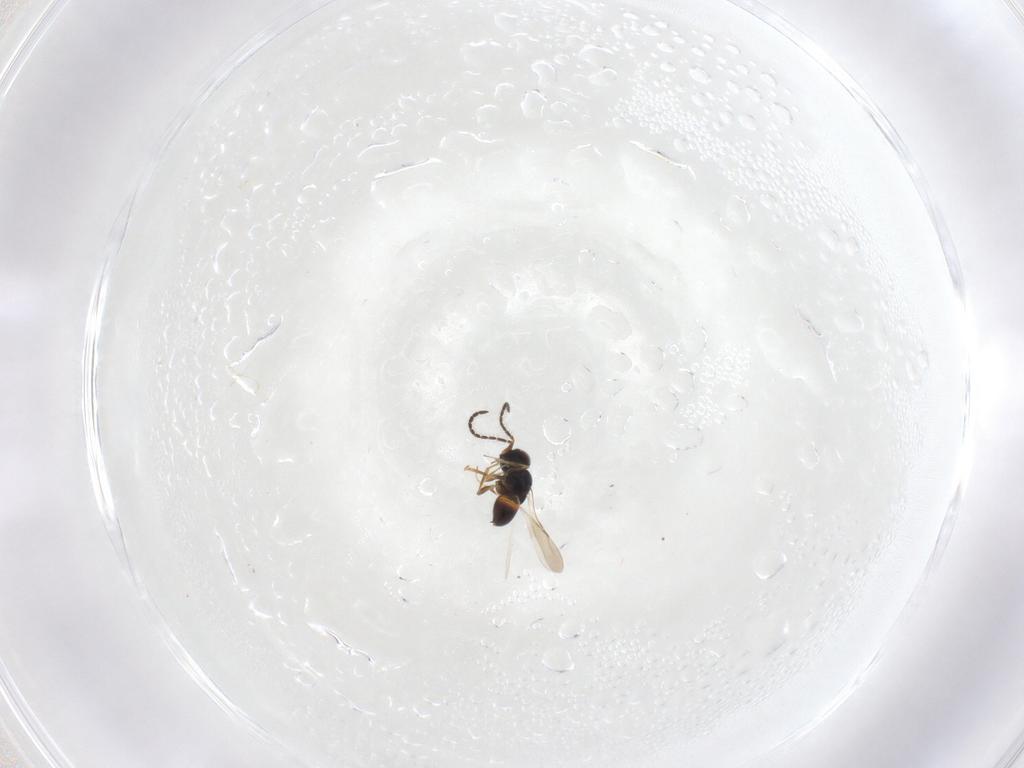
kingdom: Animalia
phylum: Arthropoda
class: Insecta
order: Hymenoptera
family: Ceraphronidae
